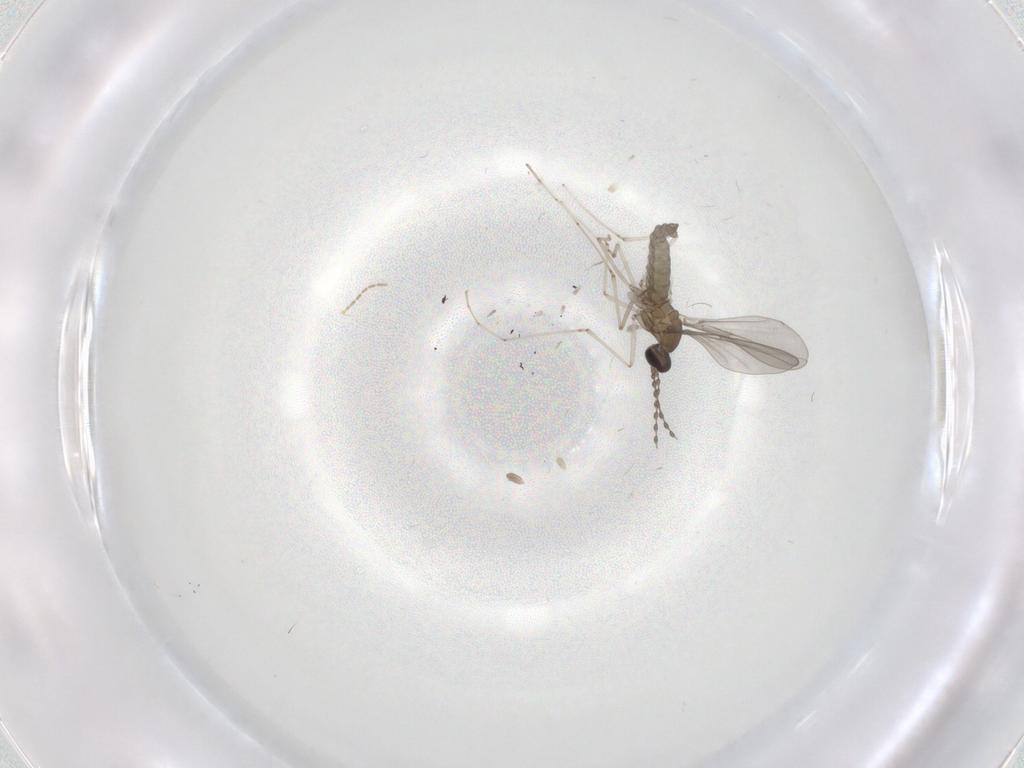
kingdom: Animalia
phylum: Arthropoda
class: Insecta
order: Diptera
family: Ceratopogonidae
